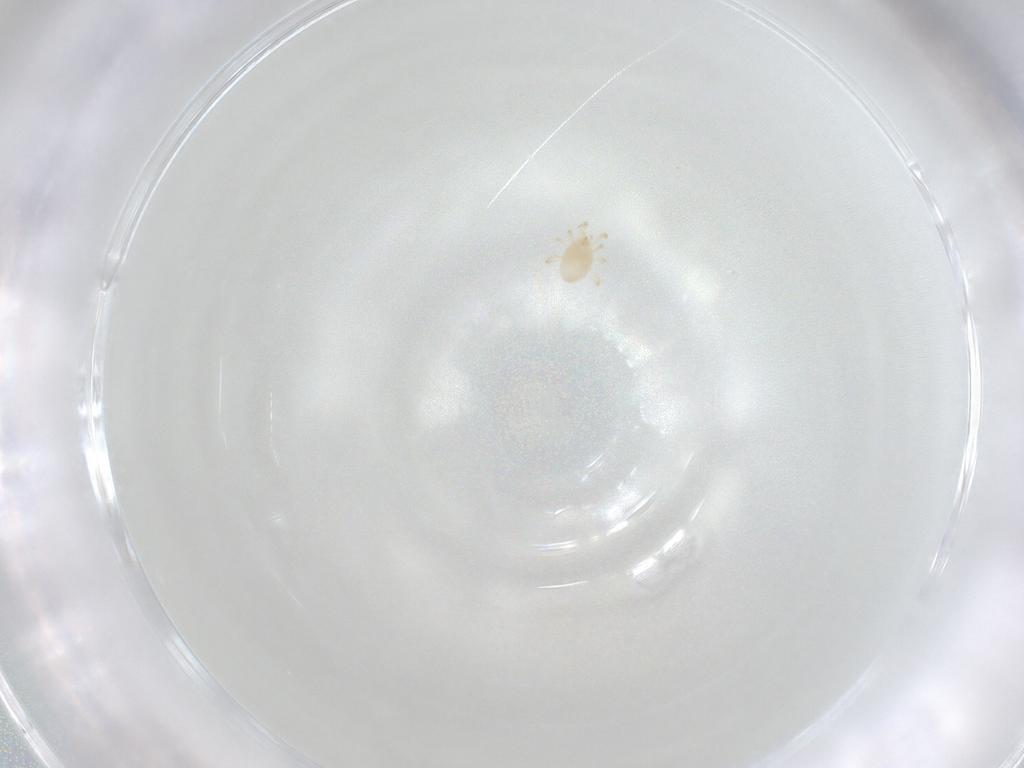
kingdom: Animalia
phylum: Arthropoda
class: Arachnida
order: Mesostigmata
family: Phytoseiidae
